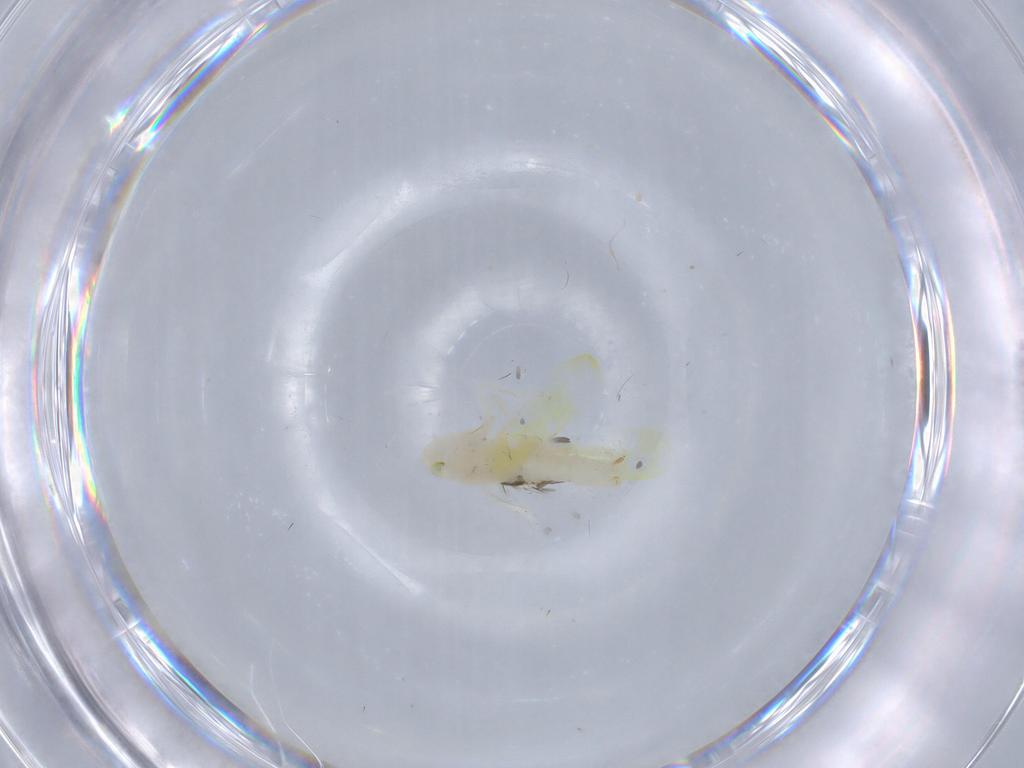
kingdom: Animalia
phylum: Arthropoda
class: Insecta
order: Hemiptera
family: Cicadellidae
